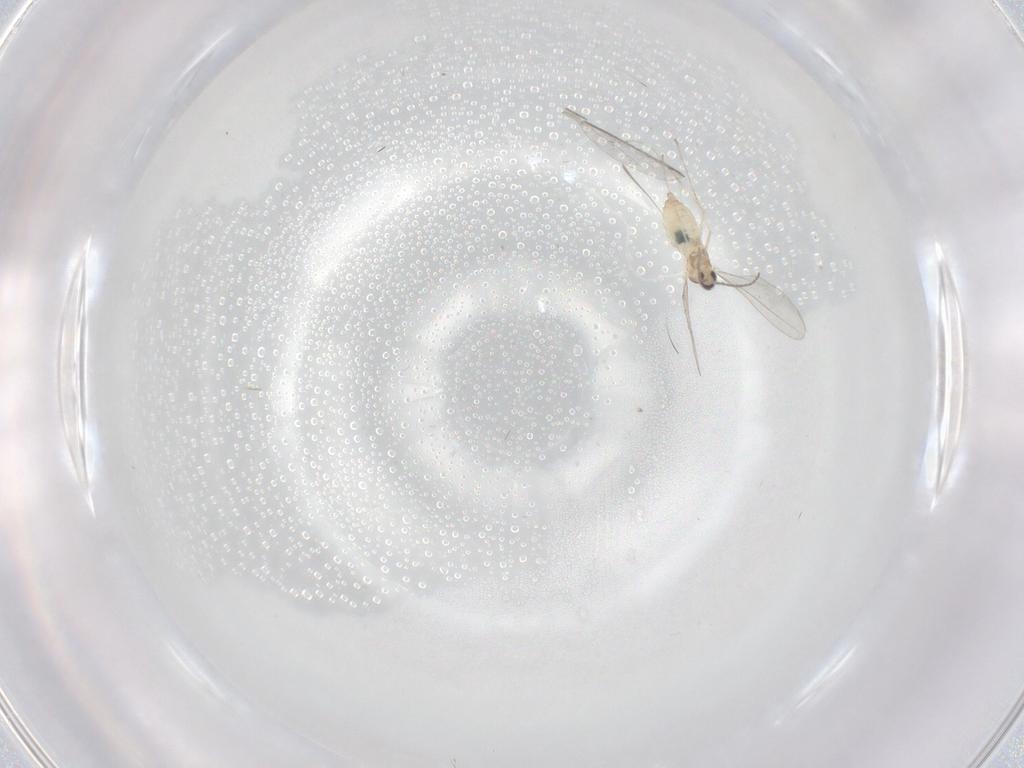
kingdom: Animalia
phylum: Arthropoda
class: Insecta
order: Diptera
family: Cecidomyiidae
